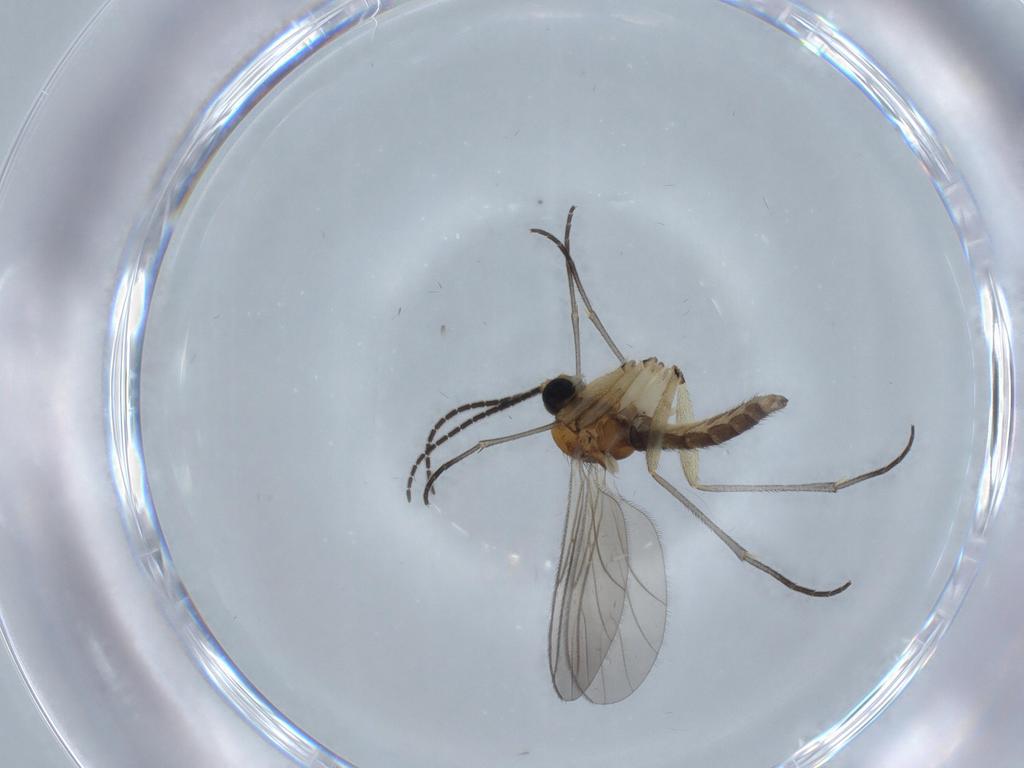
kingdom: Animalia
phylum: Arthropoda
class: Insecta
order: Diptera
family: Sciaridae
